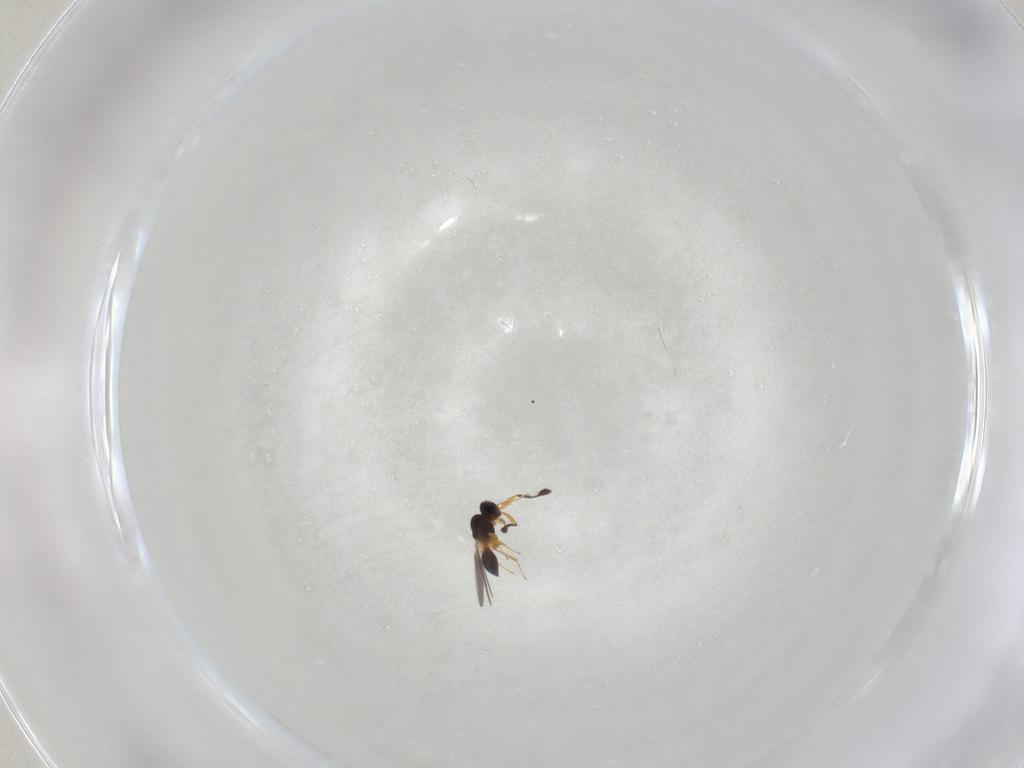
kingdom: Animalia
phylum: Arthropoda
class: Insecta
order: Hymenoptera
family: Platygastridae
